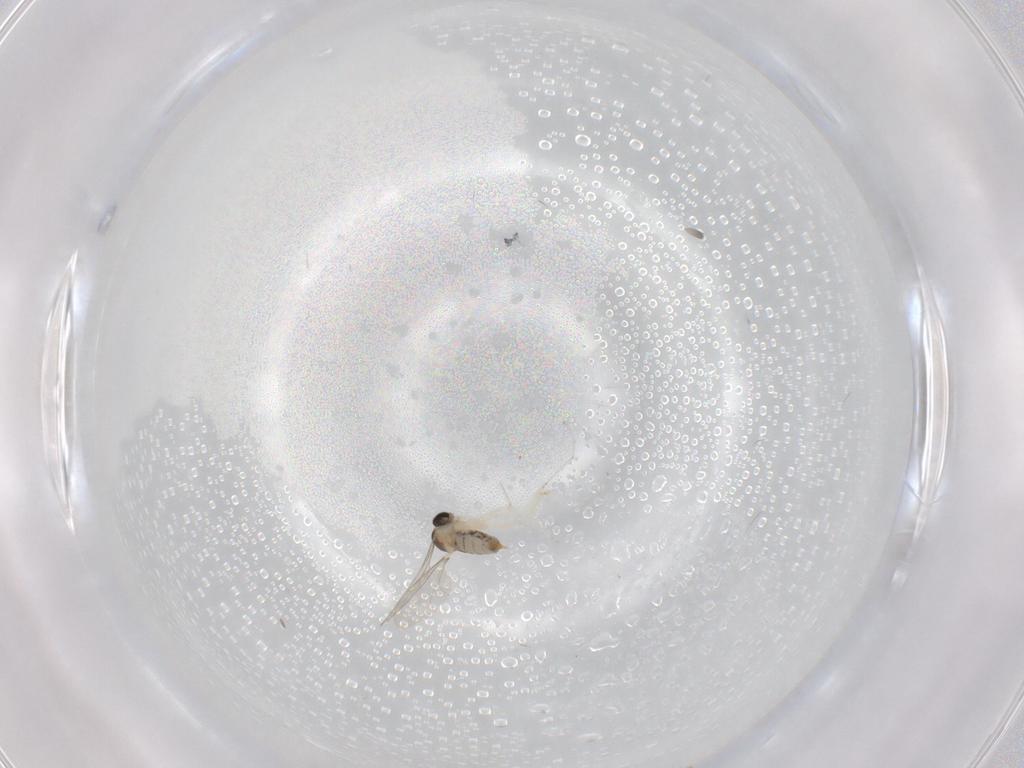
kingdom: Animalia
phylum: Arthropoda
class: Insecta
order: Diptera
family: Cecidomyiidae
